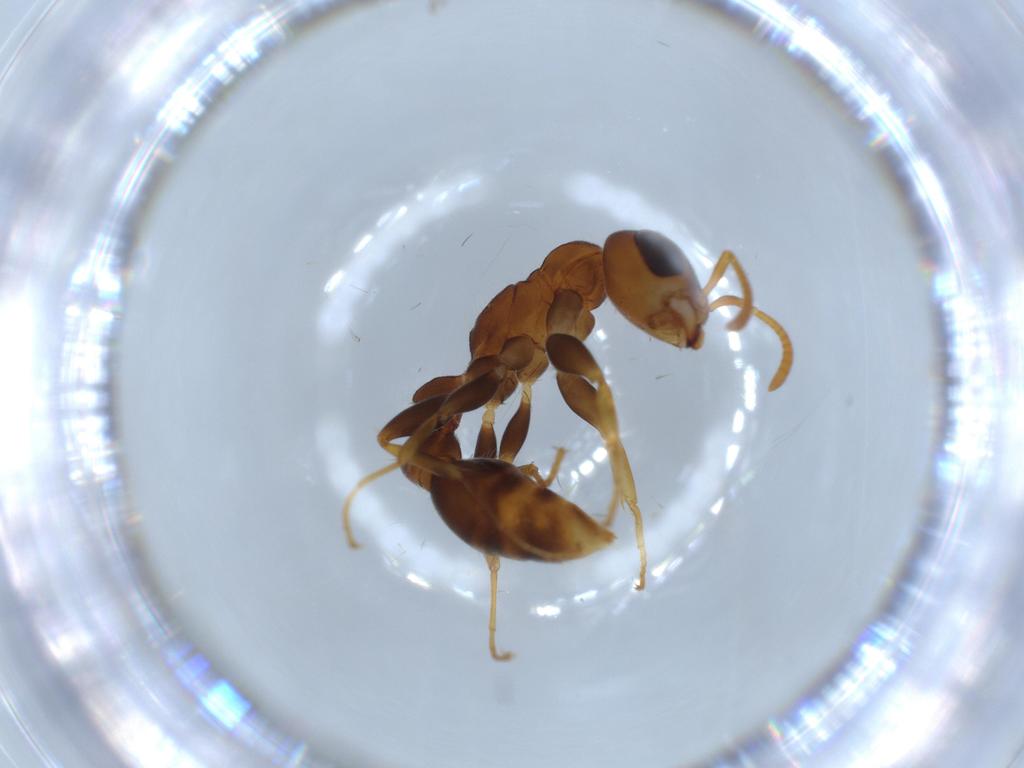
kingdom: Animalia
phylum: Arthropoda
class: Insecta
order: Hymenoptera
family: Formicidae
